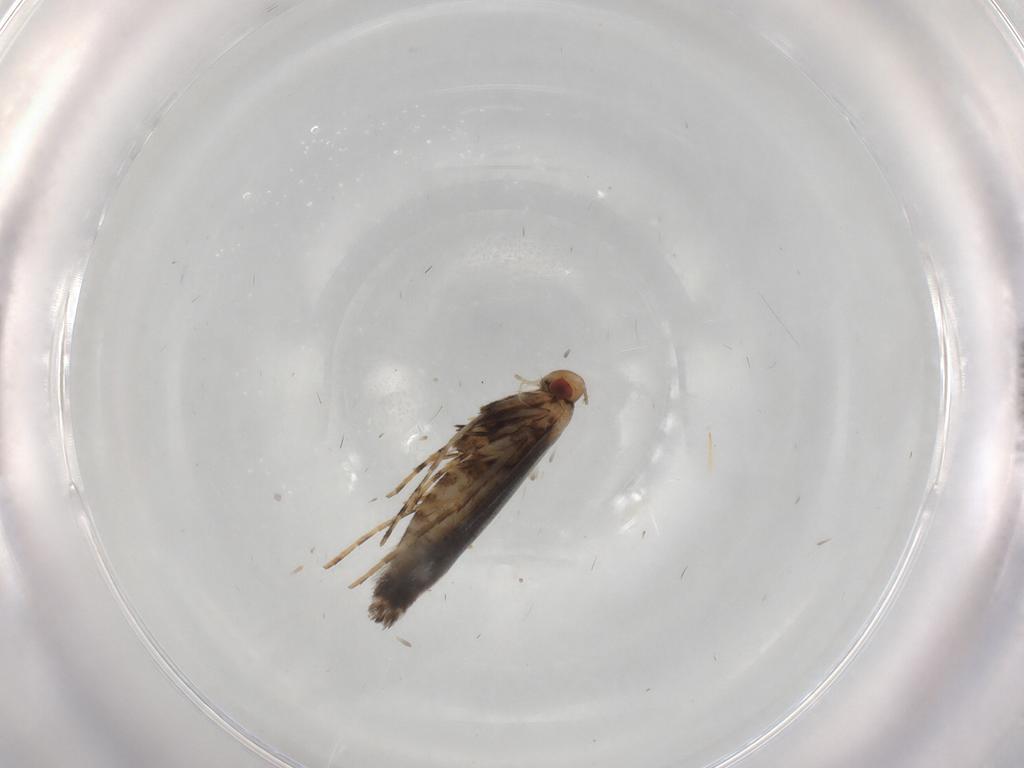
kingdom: Animalia
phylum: Arthropoda
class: Insecta
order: Lepidoptera
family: Gracillariidae
